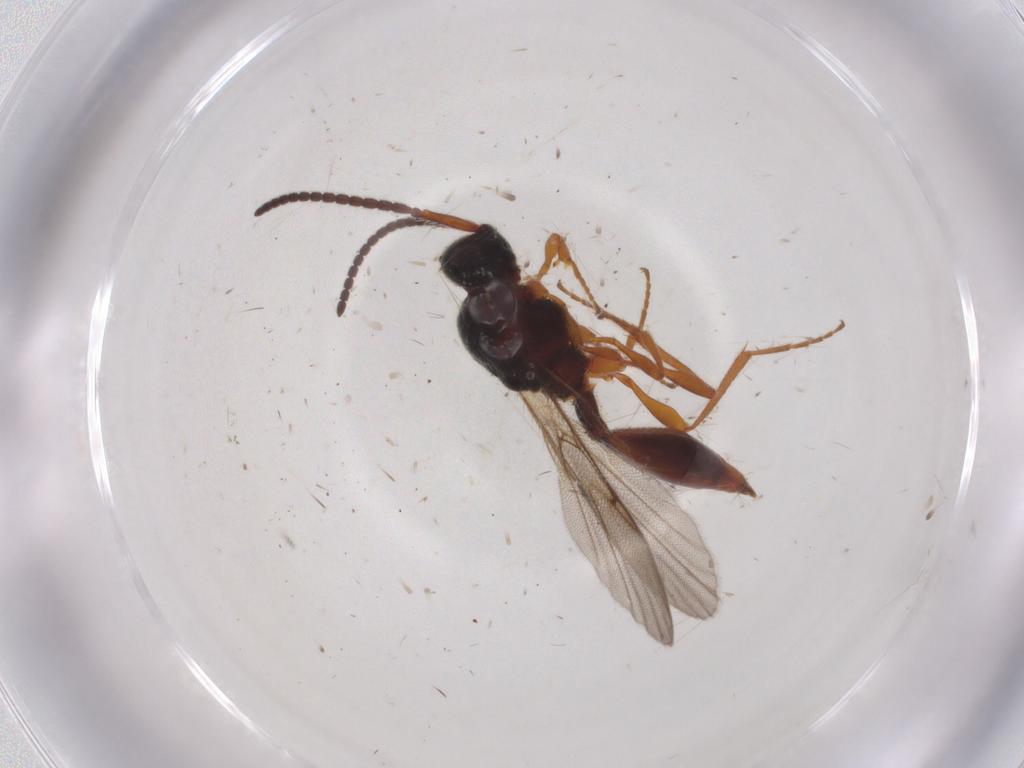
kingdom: Animalia
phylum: Arthropoda
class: Insecta
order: Hymenoptera
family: Diapriidae
